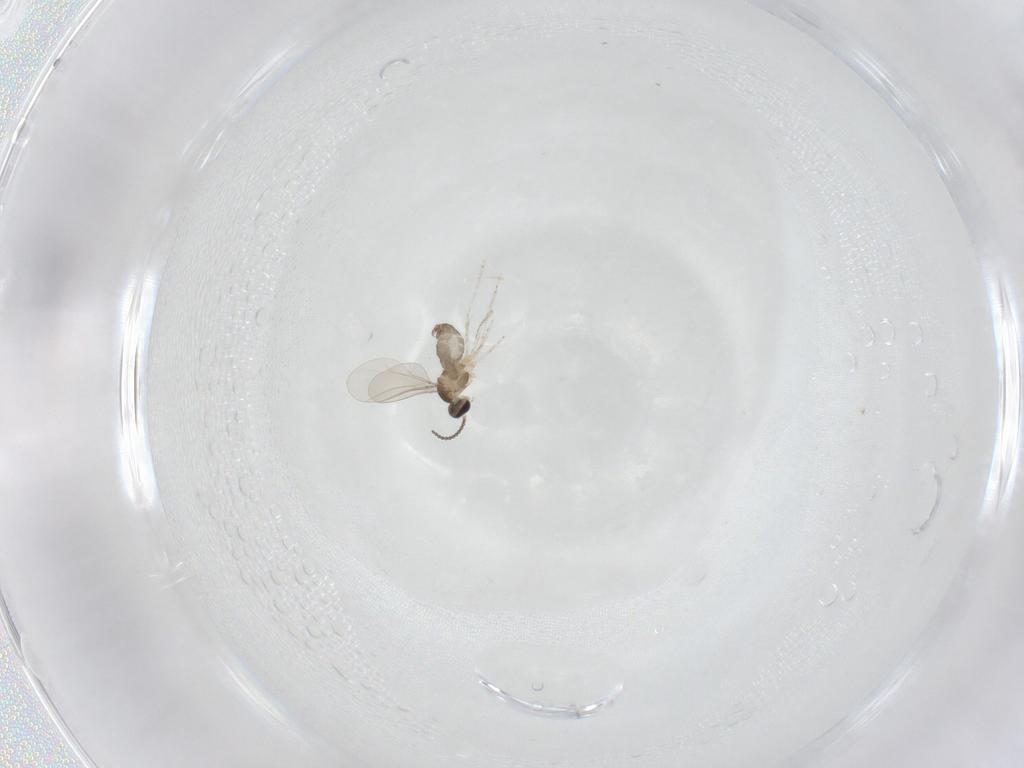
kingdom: Animalia
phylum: Arthropoda
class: Insecta
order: Diptera
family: Cecidomyiidae
